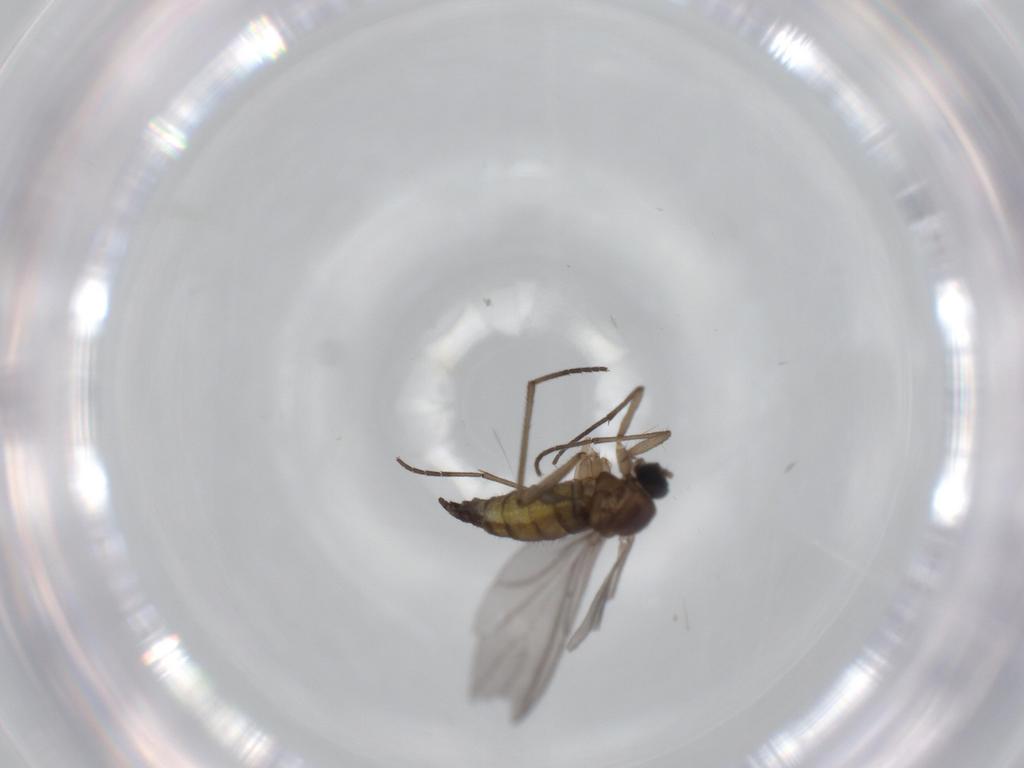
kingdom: Animalia
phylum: Arthropoda
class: Insecta
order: Diptera
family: Sciaridae
